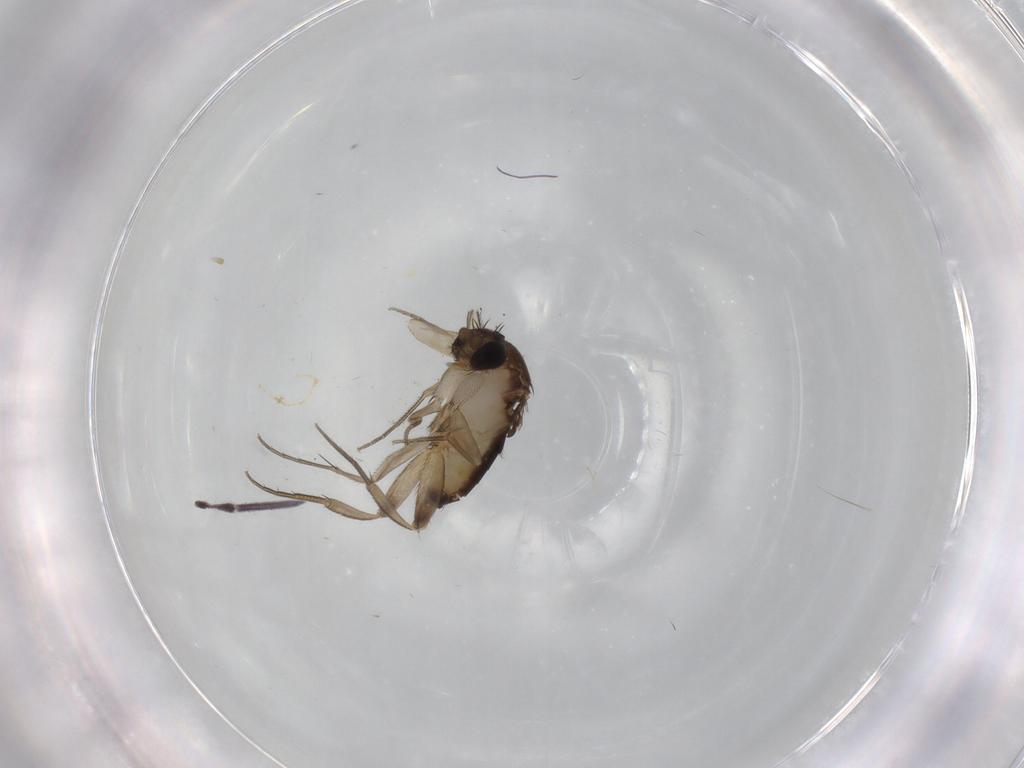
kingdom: Animalia
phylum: Arthropoda
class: Insecta
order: Diptera
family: Phoridae
